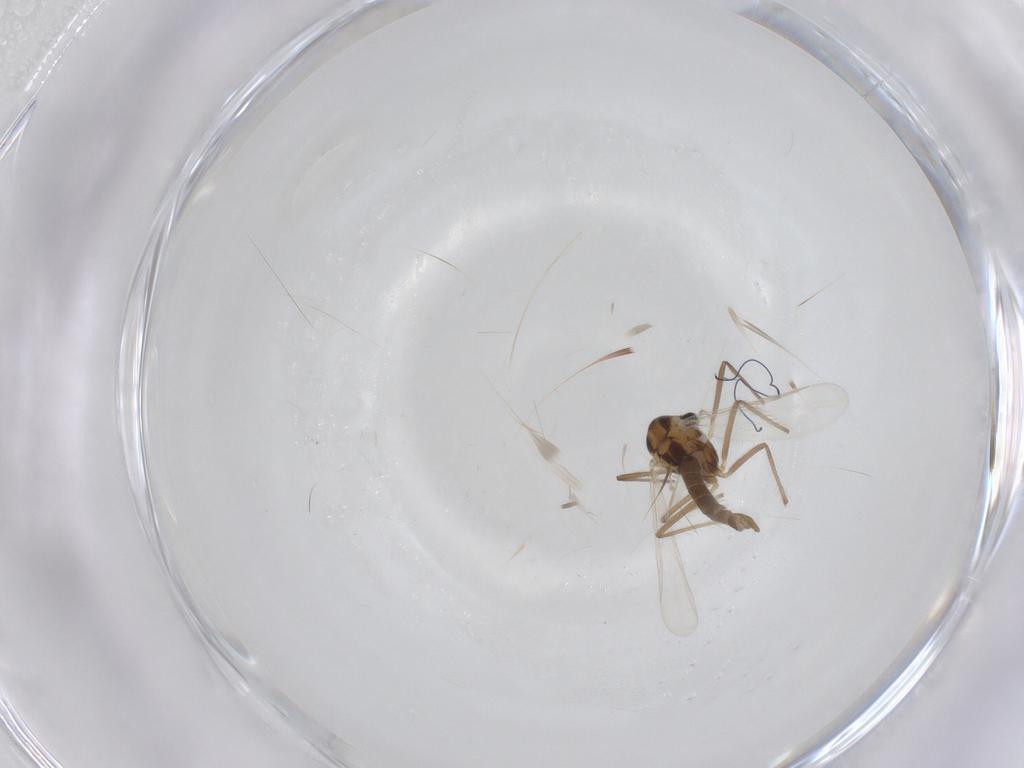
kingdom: Animalia
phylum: Arthropoda
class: Insecta
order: Diptera
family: Chironomidae
